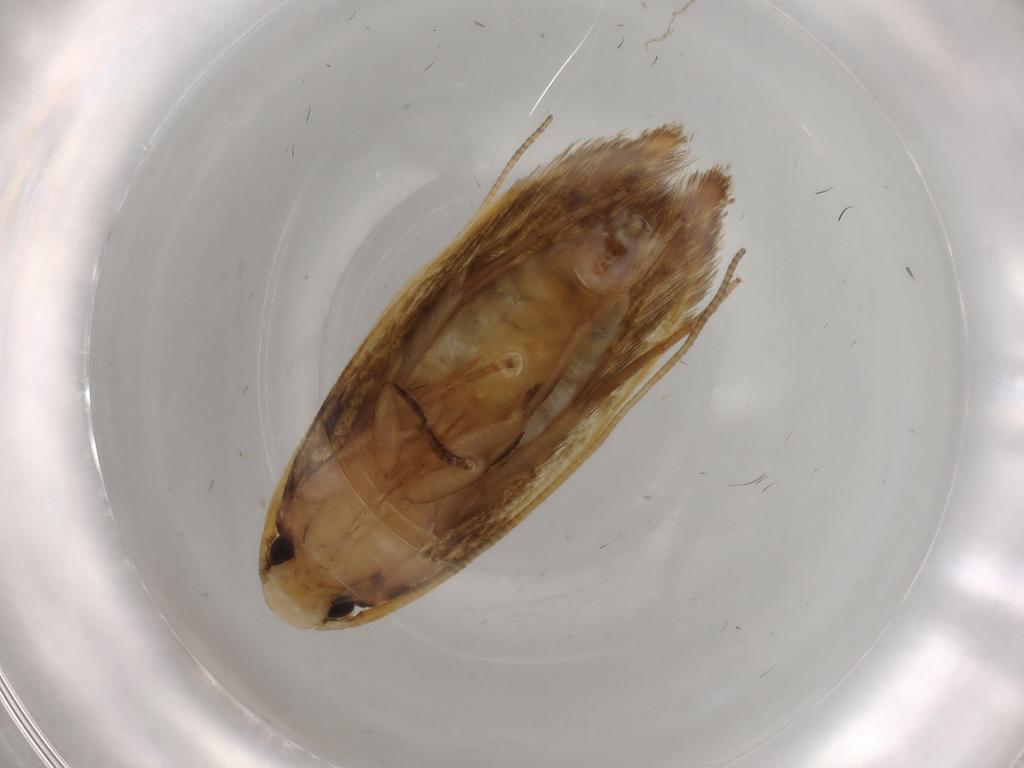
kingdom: Animalia
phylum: Arthropoda
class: Insecta
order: Lepidoptera
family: Tineidae
